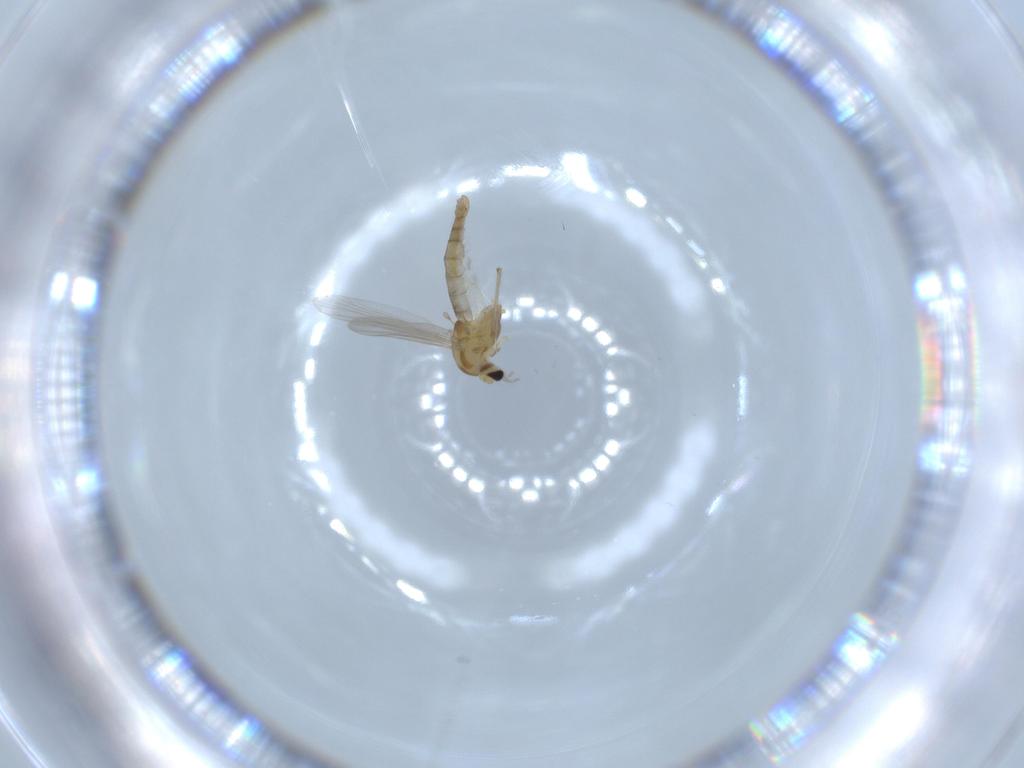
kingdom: Animalia
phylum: Arthropoda
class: Insecta
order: Diptera
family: Chironomidae
